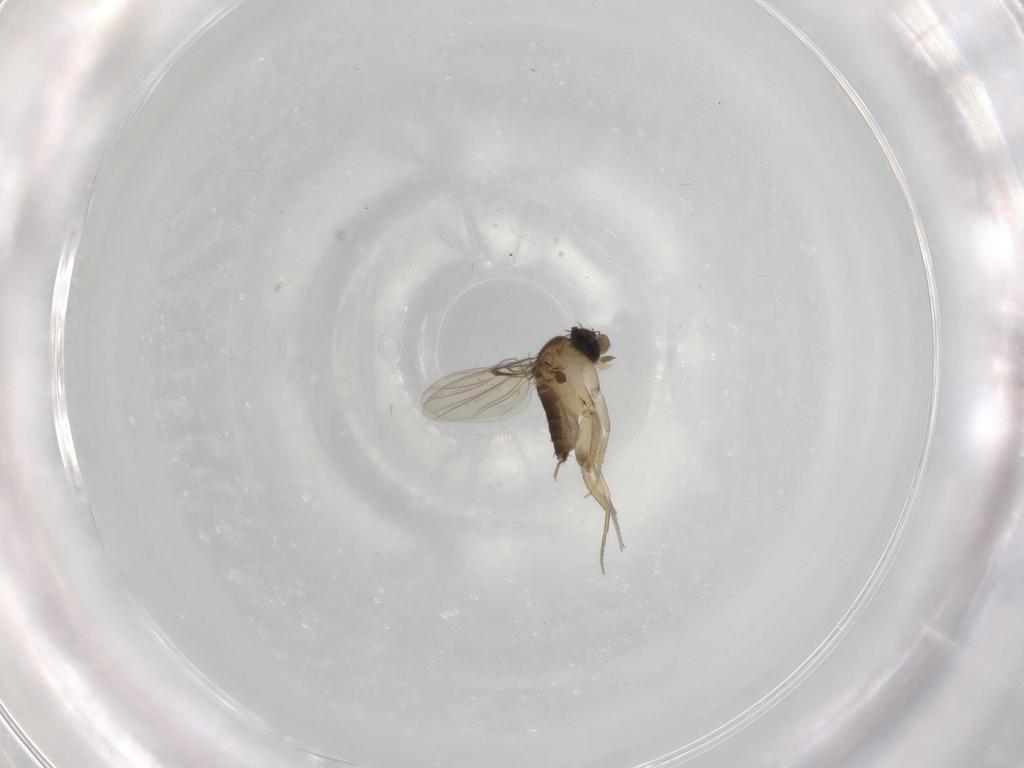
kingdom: Animalia
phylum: Arthropoda
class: Insecta
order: Diptera
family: Phoridae
